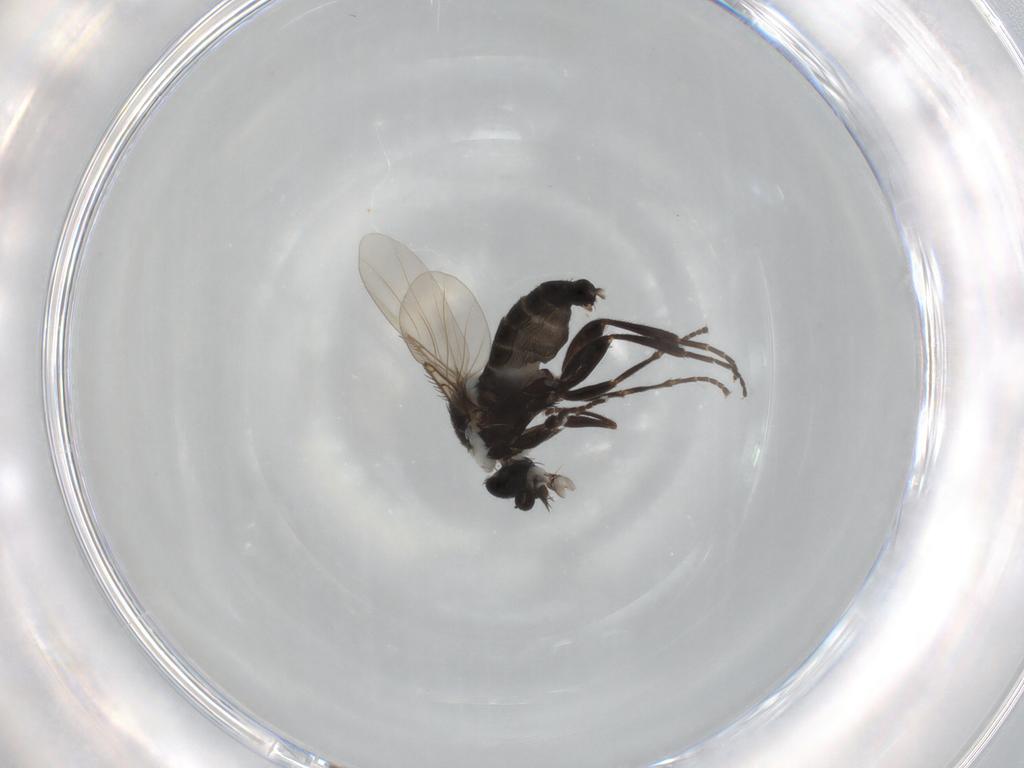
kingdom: Animalia
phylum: Arthropoda
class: Insecta
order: Diptera
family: Phoridae
